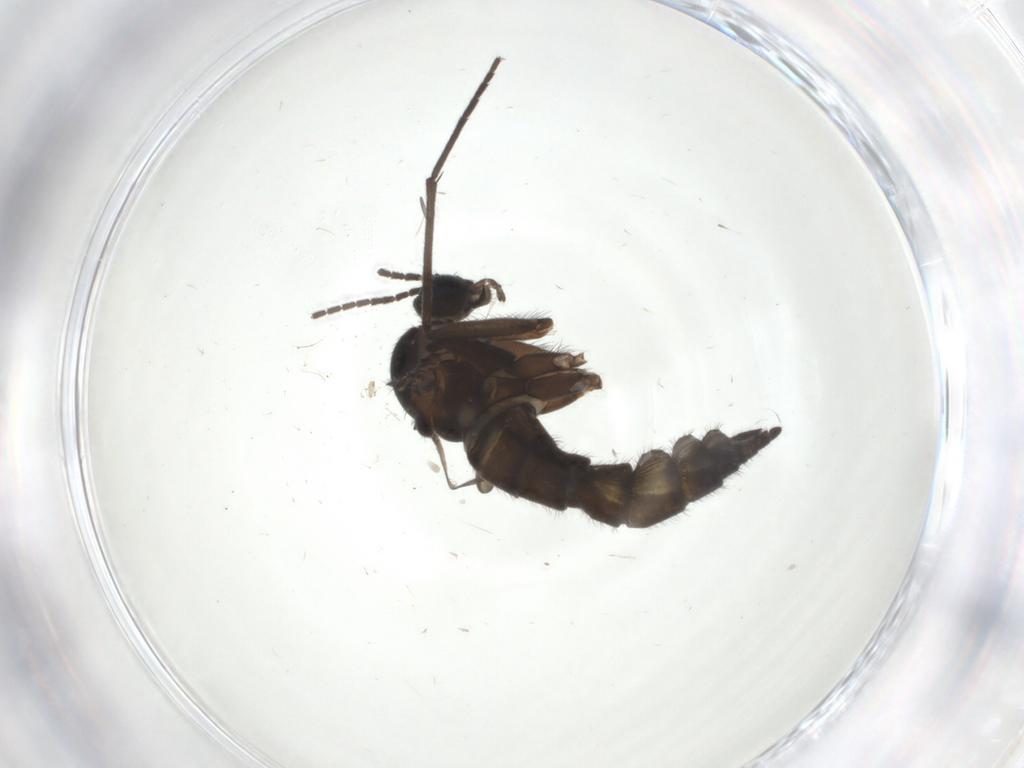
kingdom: Animalia
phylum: Arthropoda
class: Insecta
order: Diptera
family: Sciaridae
